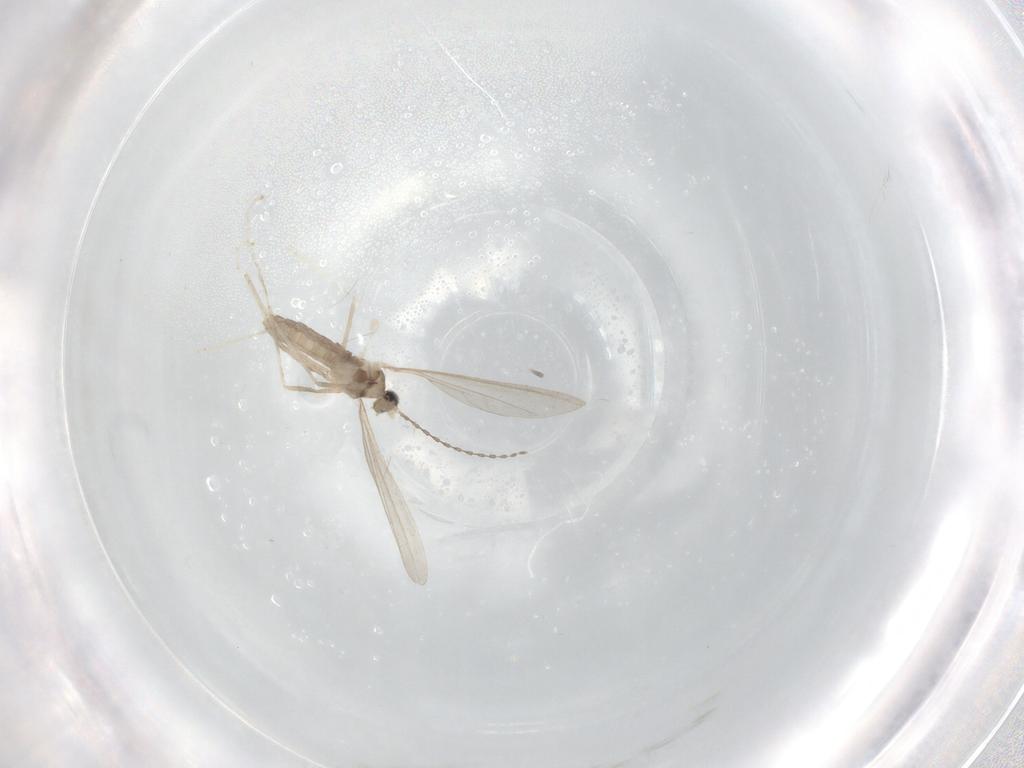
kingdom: Animalia
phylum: Arthropoda
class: Insecta
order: Diptera
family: Cecidomyiidae
